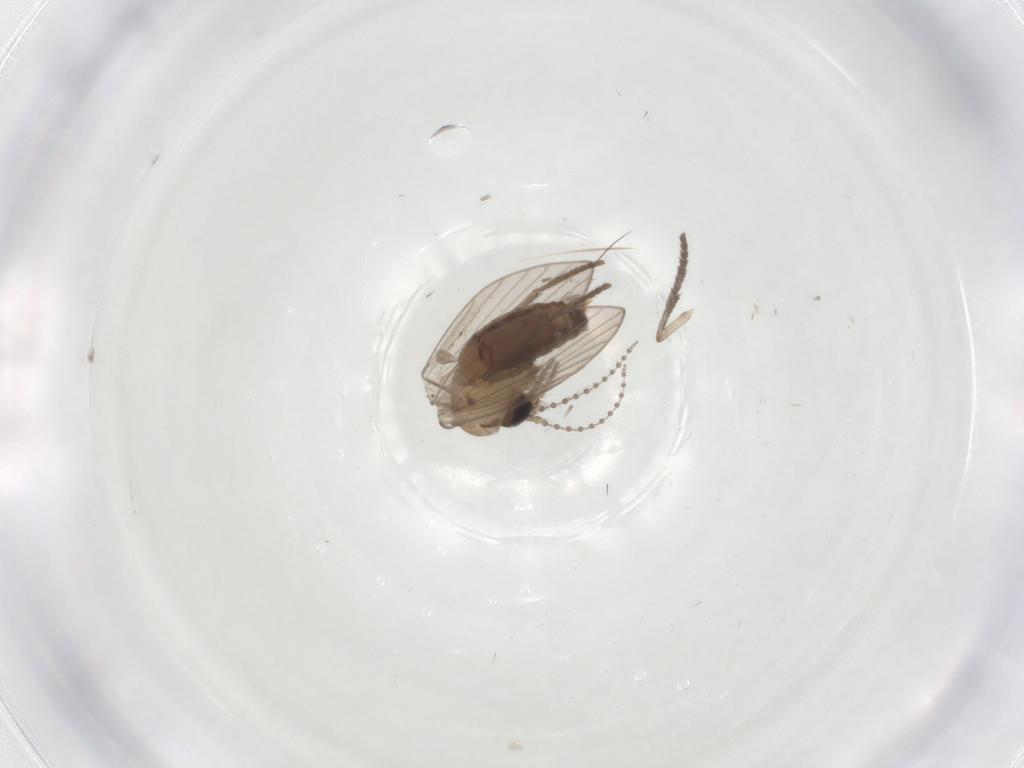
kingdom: Animalia
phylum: Arthropoda
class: Insecta
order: Diptera
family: Psychodidae
